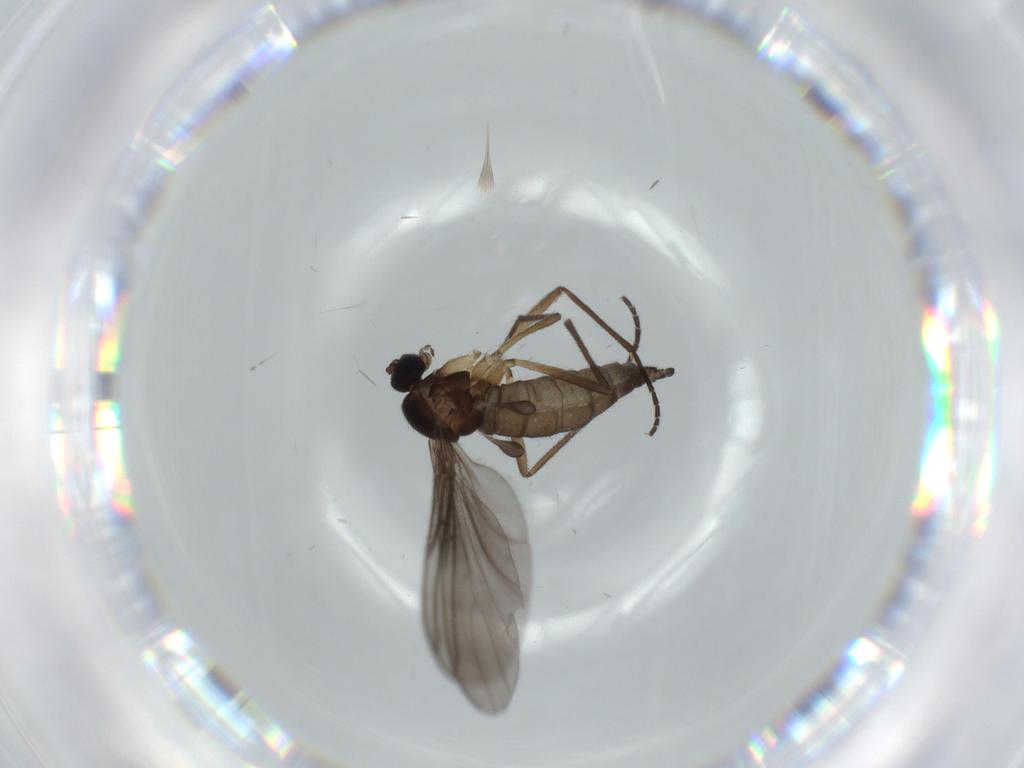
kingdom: Animalia
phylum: Arthropoda
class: Insecta
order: Diptera
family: Sciaridae
